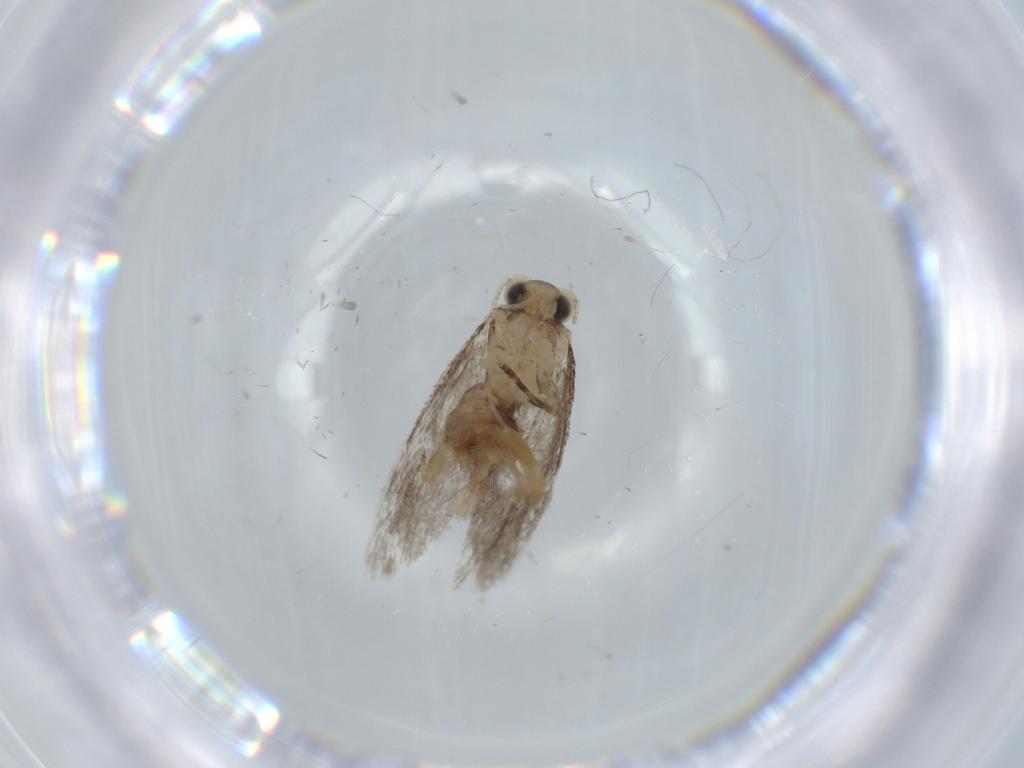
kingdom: Animalia
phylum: Arthropoda
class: Insecta
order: Lepidoptera
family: Tineidae
